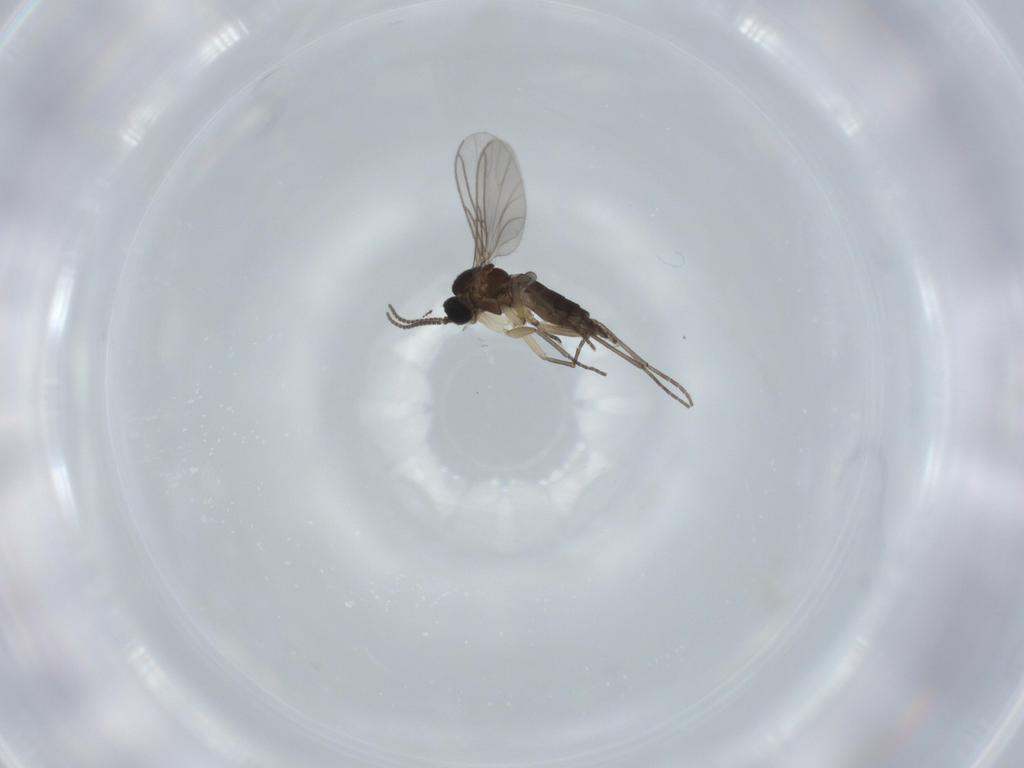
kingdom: Animalia
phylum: Arthropoda
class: Insecta
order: Diptera
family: Sciaridae
